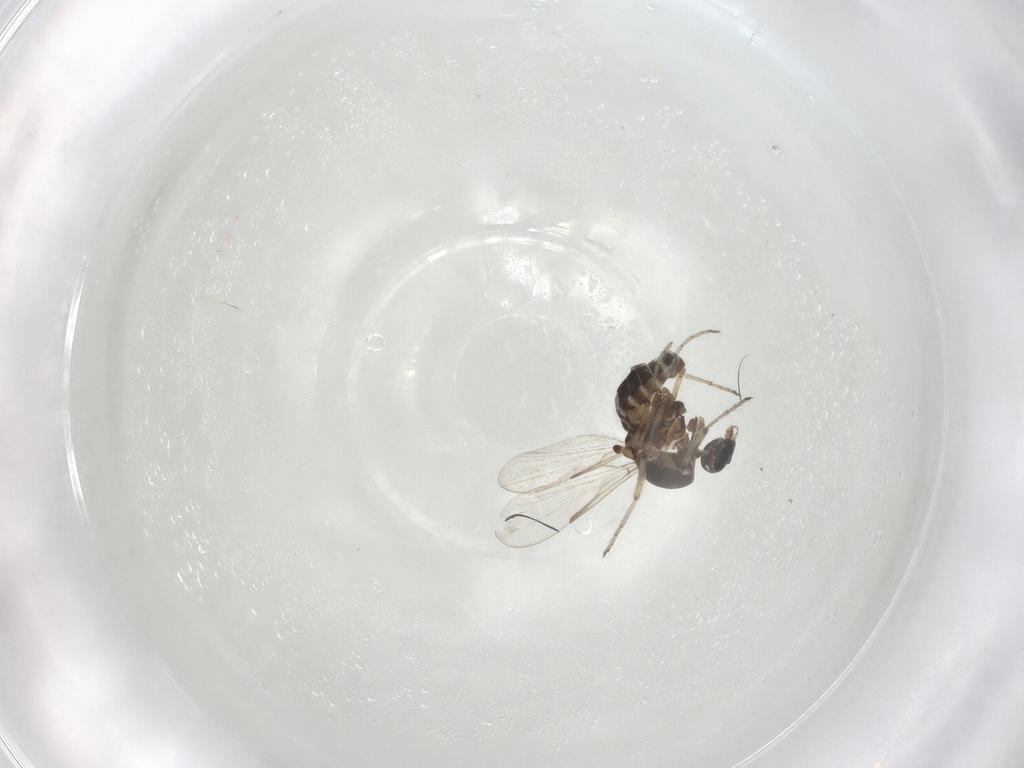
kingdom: Animalia
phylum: Arthropoda
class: Insecta
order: Diptera
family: Ceratopogonidae
